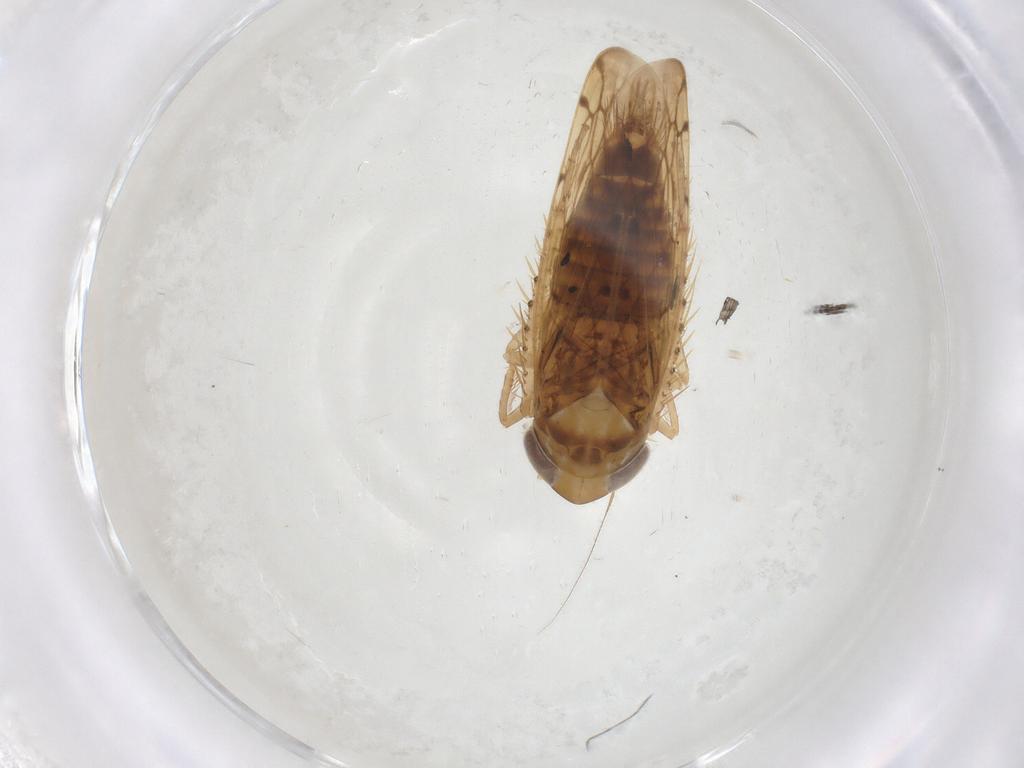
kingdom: Animalia
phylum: Arthropoda
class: Insecta
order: Hemiptera
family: Cicadellidae
